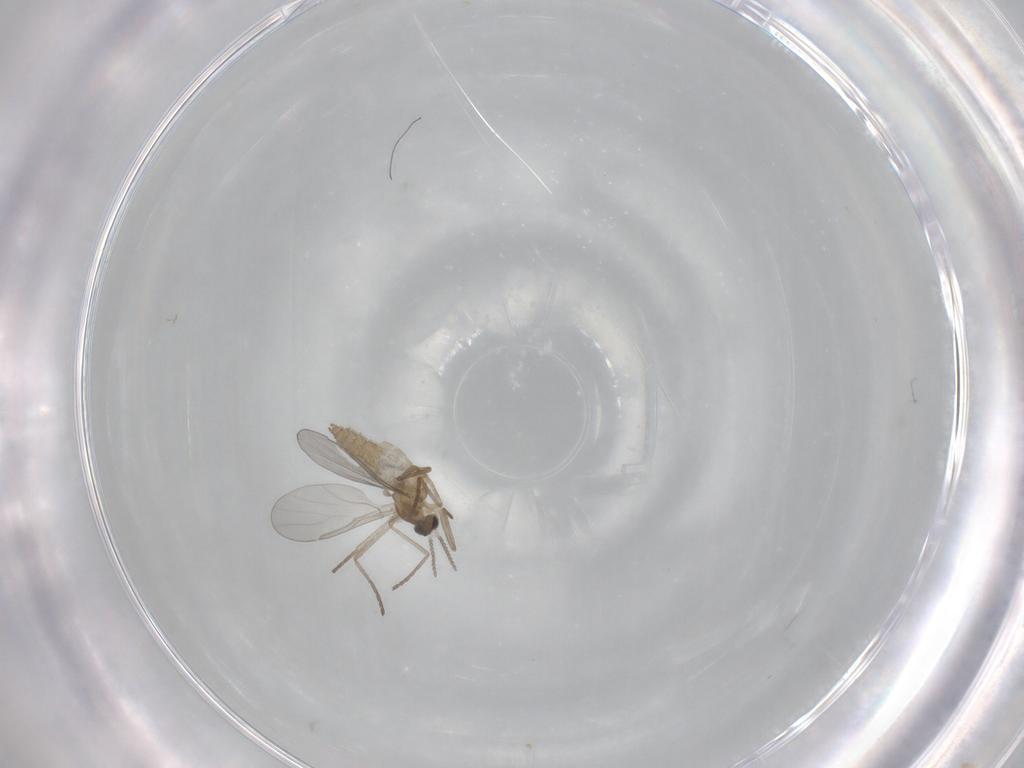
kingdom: Animalia
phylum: Arthropoda
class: Insecta
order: Diptera
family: Cecidomyiidae
